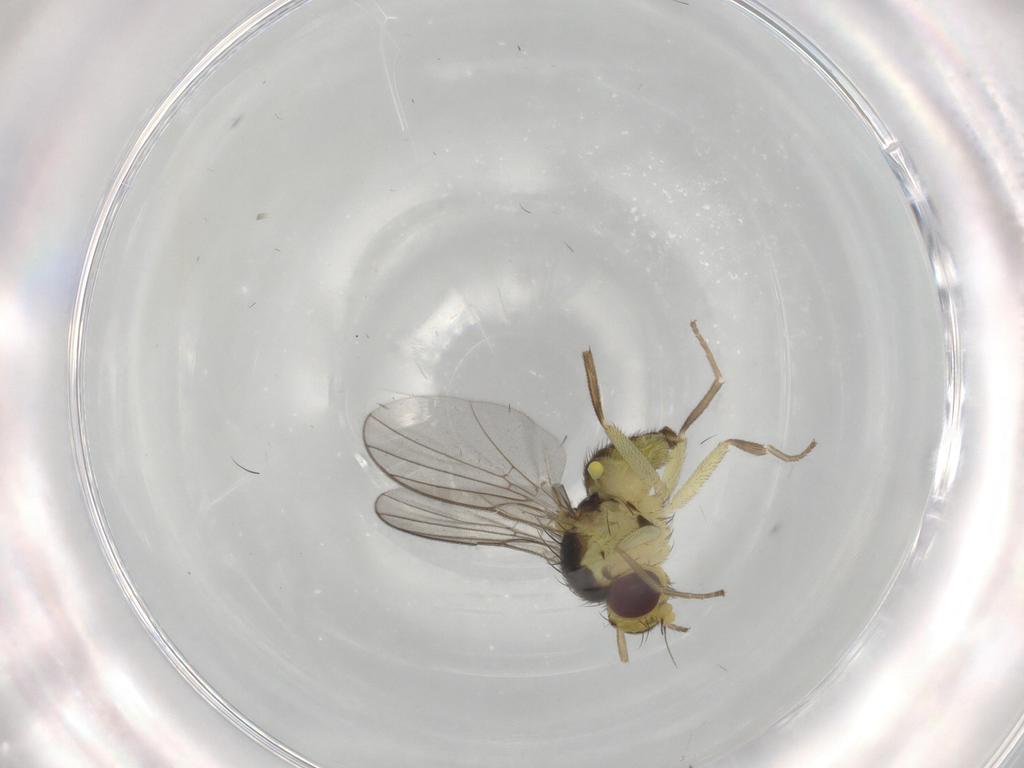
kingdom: Animalia
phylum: Arthropoda
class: Insecta
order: Diptera
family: Agromyzidae
